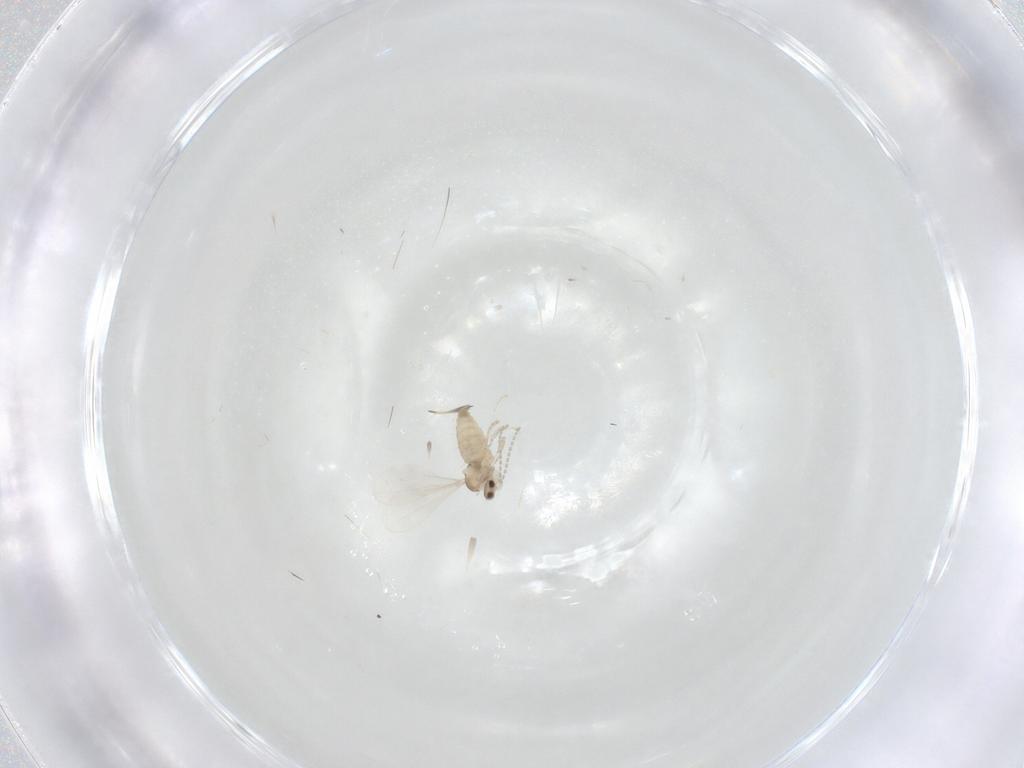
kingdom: Animalia
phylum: Arthropoda
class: Insecta
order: Diptera
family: Cecidomyiidae
